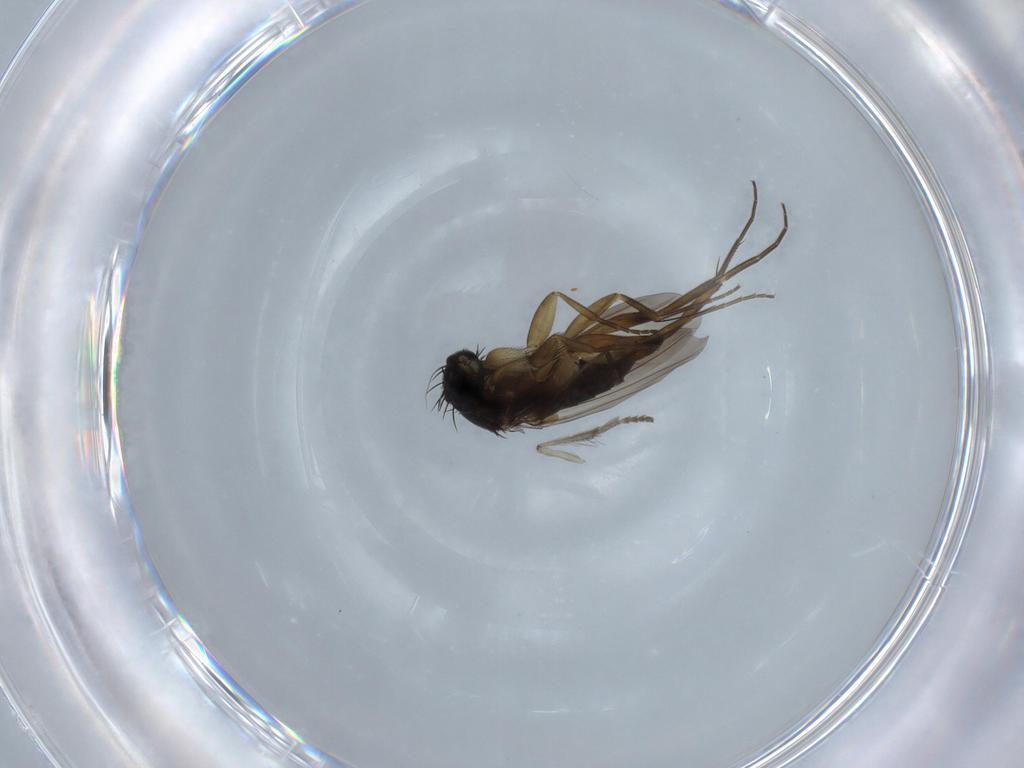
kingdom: Animalia
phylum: Arthropoda
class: Insecta
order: Diptera
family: Phoridae
